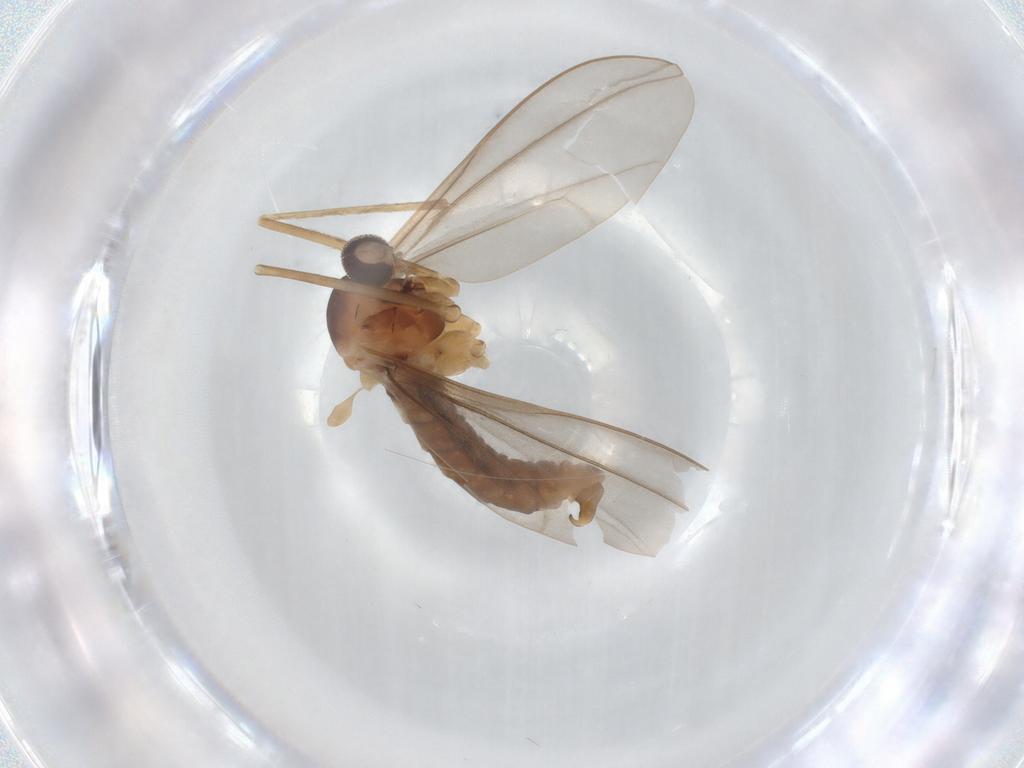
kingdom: Animalia
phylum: Arthropoda
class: Insecta
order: Diptera
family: Cecidomyiidae
